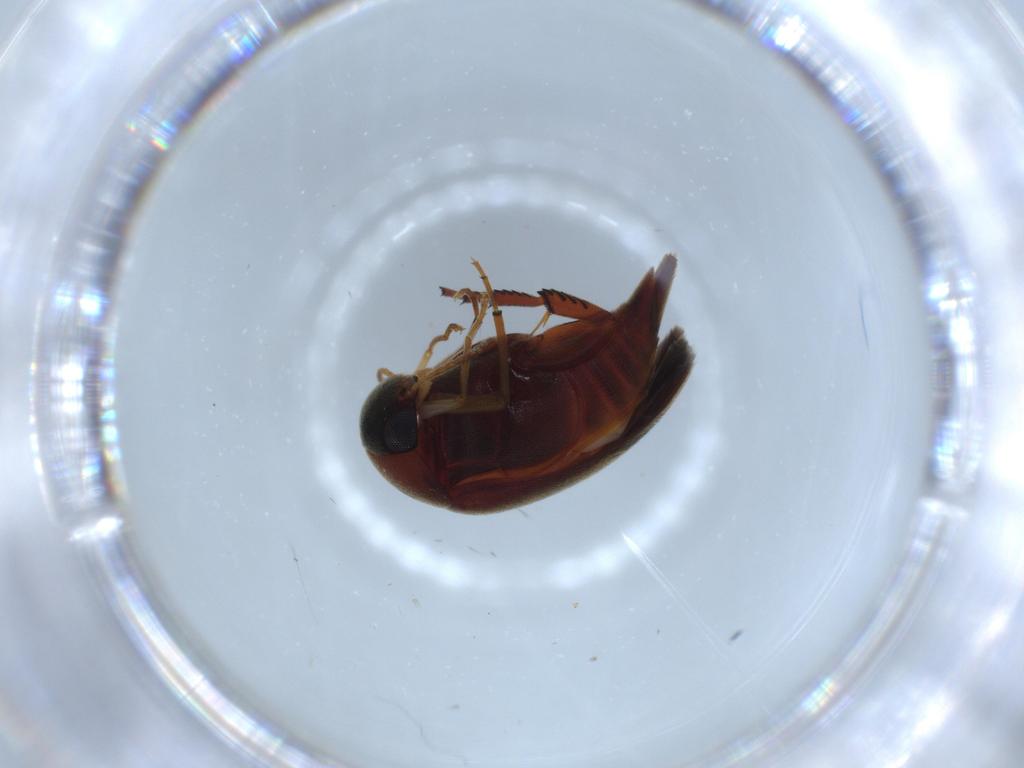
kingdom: Animalia
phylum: Arthropoda
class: Insecta
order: Coleoptera
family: Mordellidae
